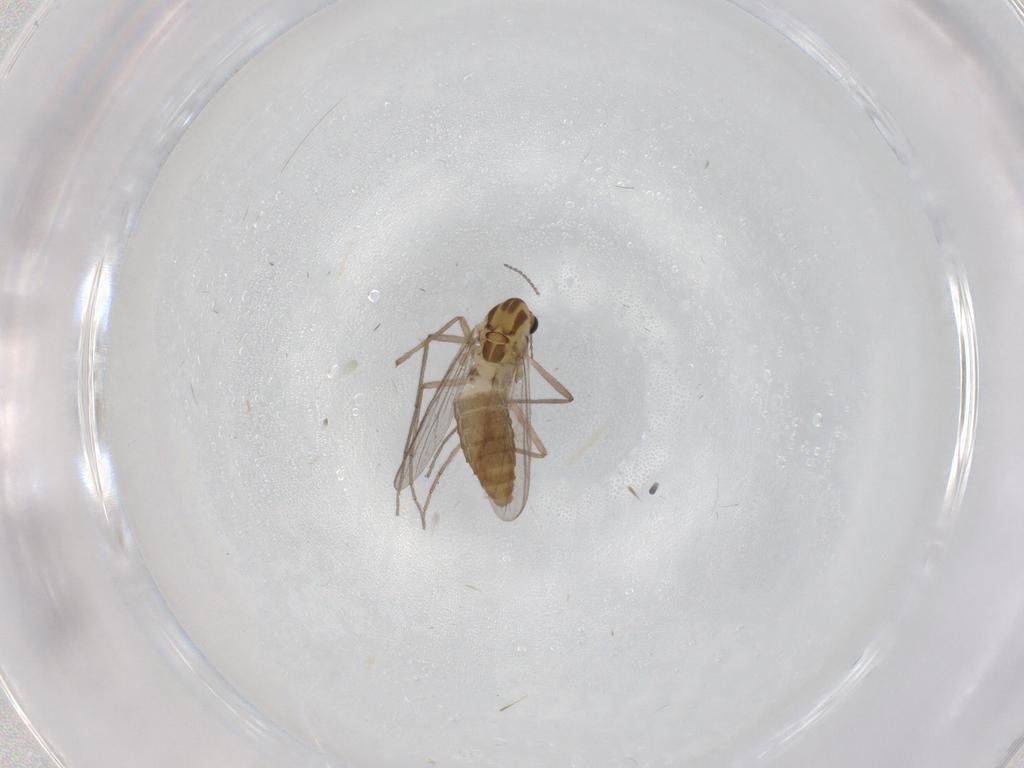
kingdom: Animalia
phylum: Arthropoda
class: Insecta
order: Diptera
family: Chironomidae
